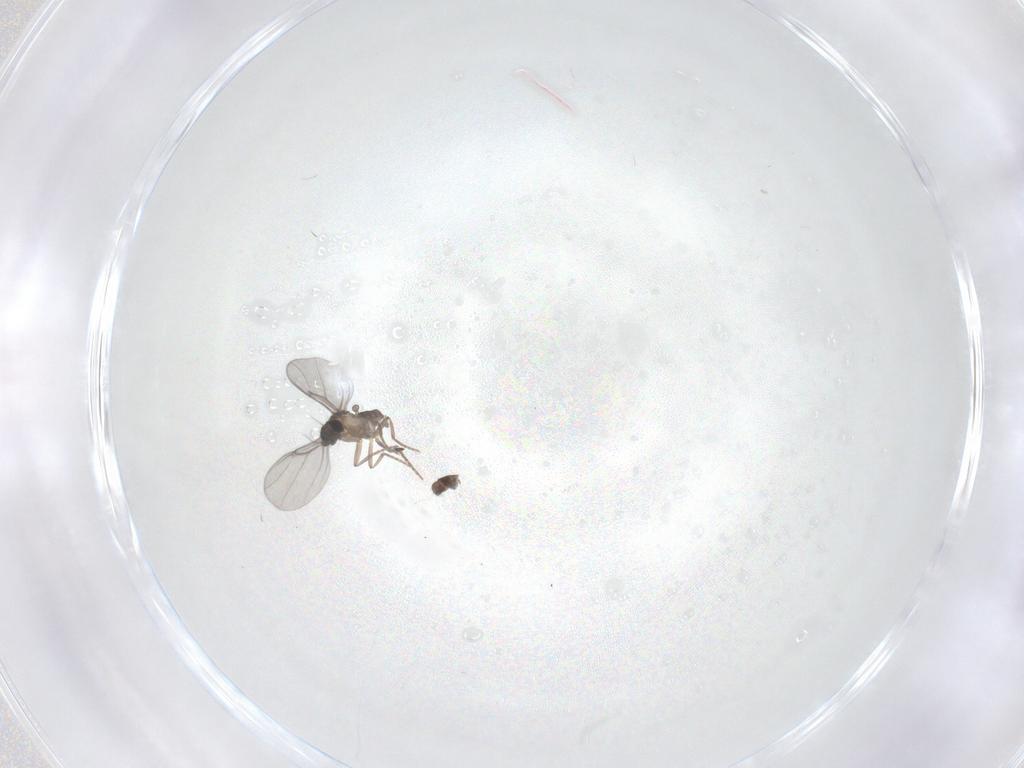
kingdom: Animalia
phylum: Arthropoda
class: Insecta
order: Diptera
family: Phoridae
